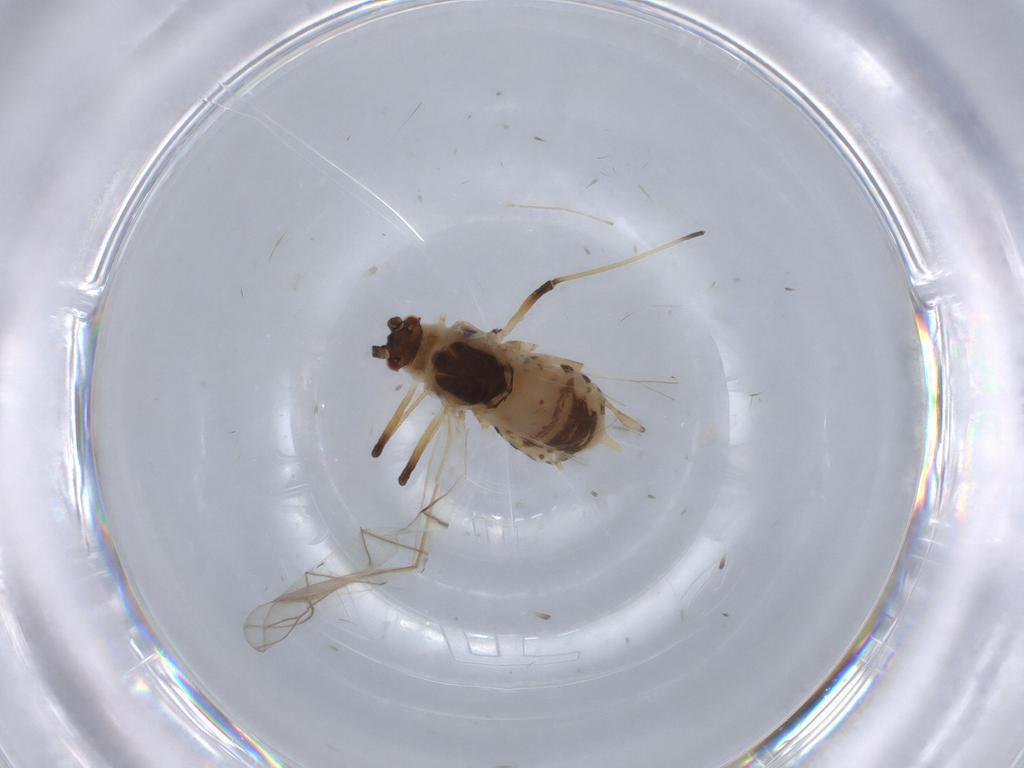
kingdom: Animalia
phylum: Arthropoda
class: Insecta
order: Hemiptera
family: Aphididae
